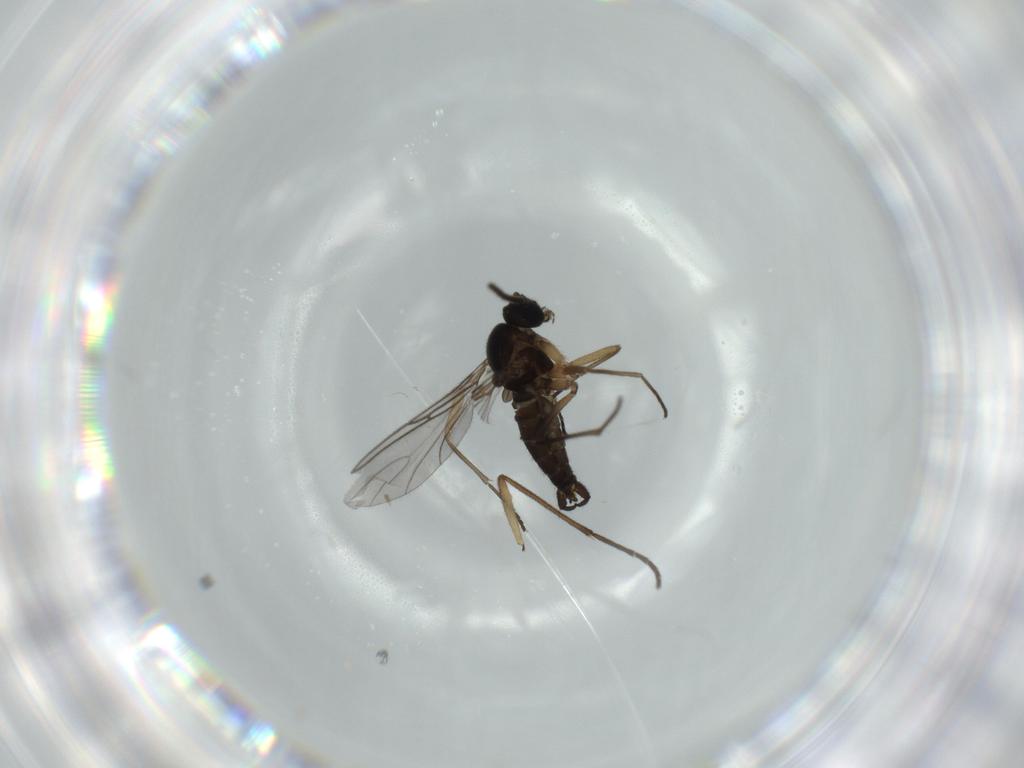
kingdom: Animalia
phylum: Arthropoda
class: Insecta
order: Diptera
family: Sciaridae
